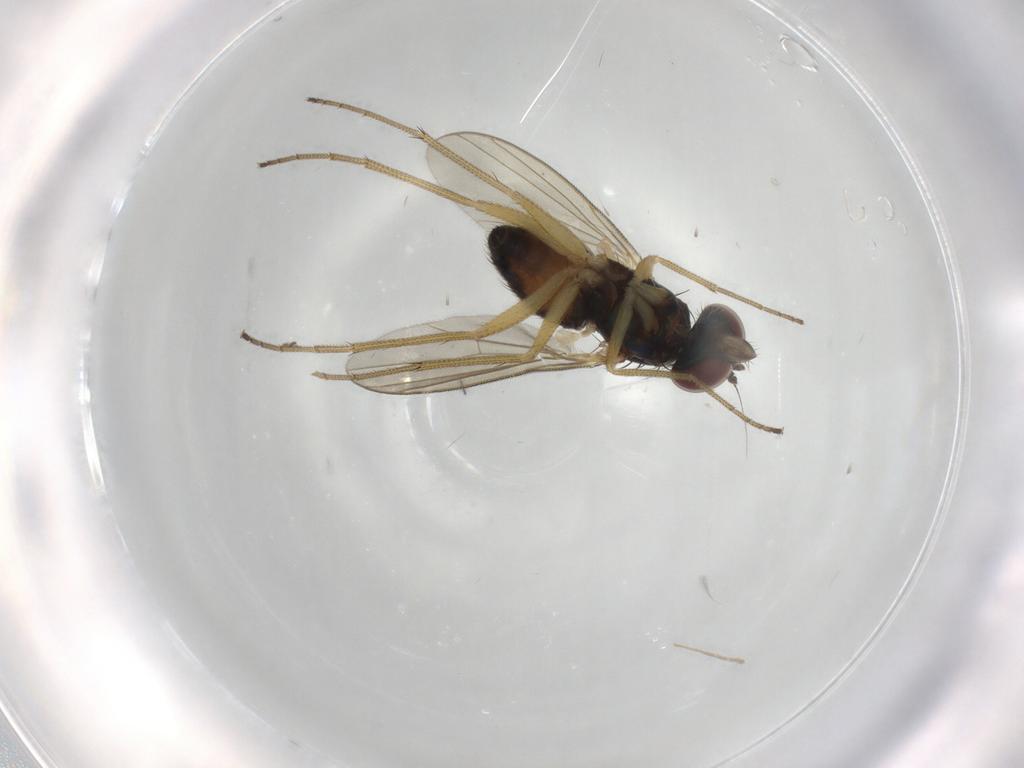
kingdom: Animalia
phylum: Arthropoda
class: Insecta
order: Diptera
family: Dolichopodidae
